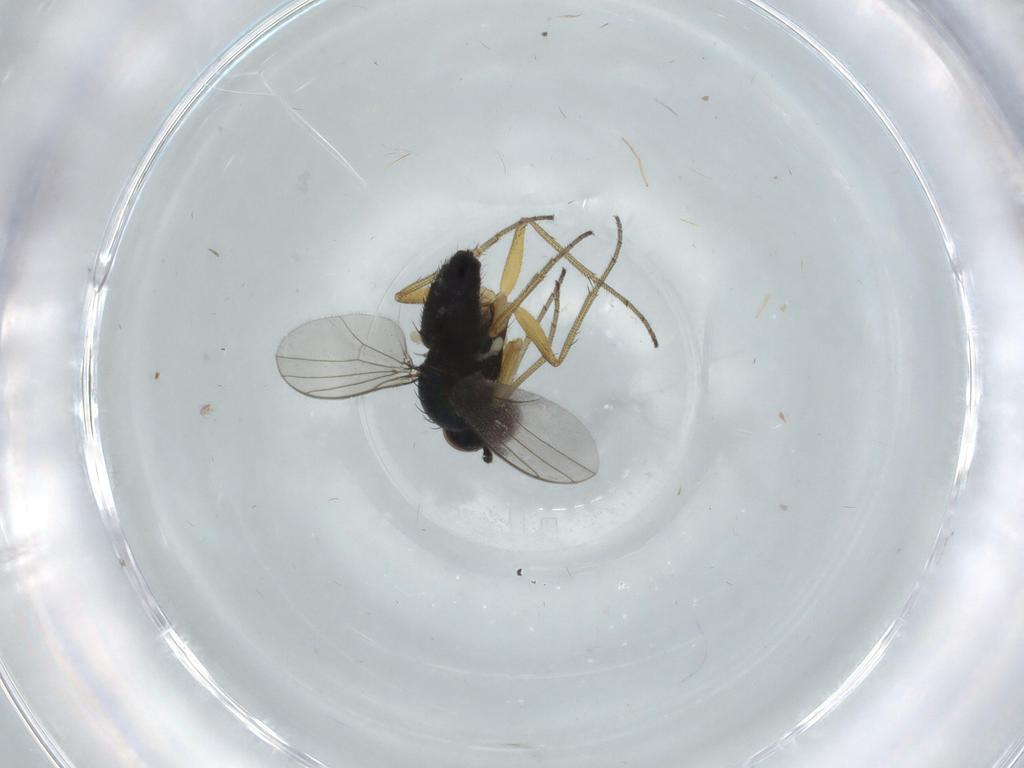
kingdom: Animalia
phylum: Arthropoda
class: Insecta
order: Diptera
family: Dolichopodidae
